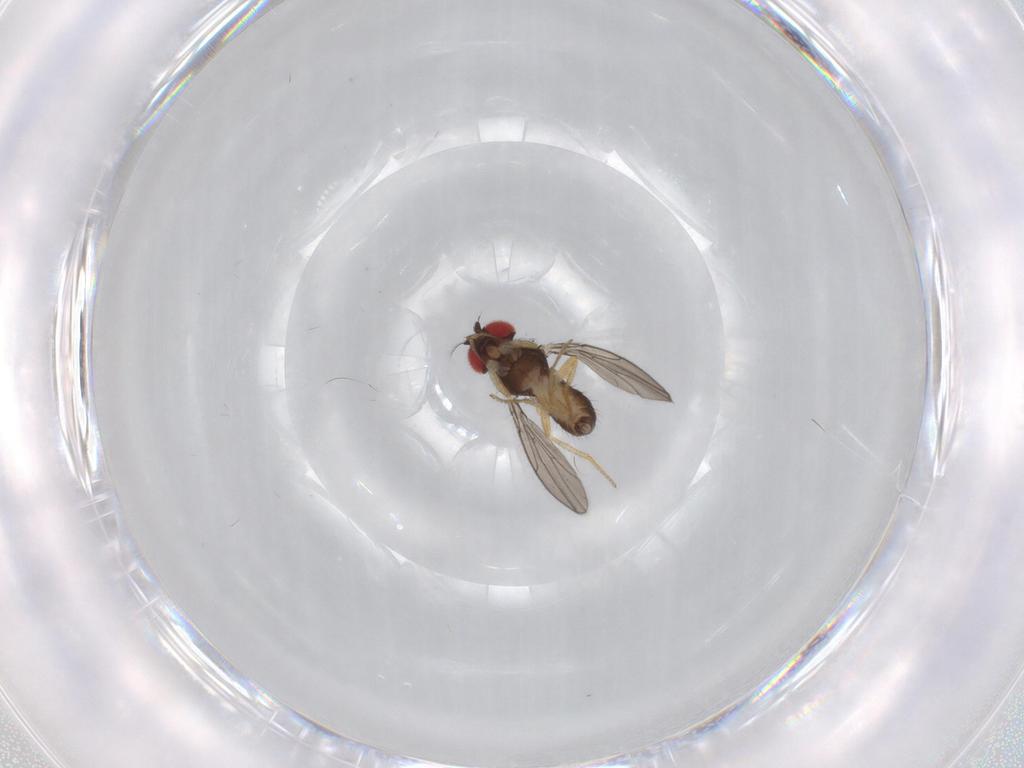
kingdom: Animalia
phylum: Arthropoda
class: Insecta
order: Diptera
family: Drosophilidae
